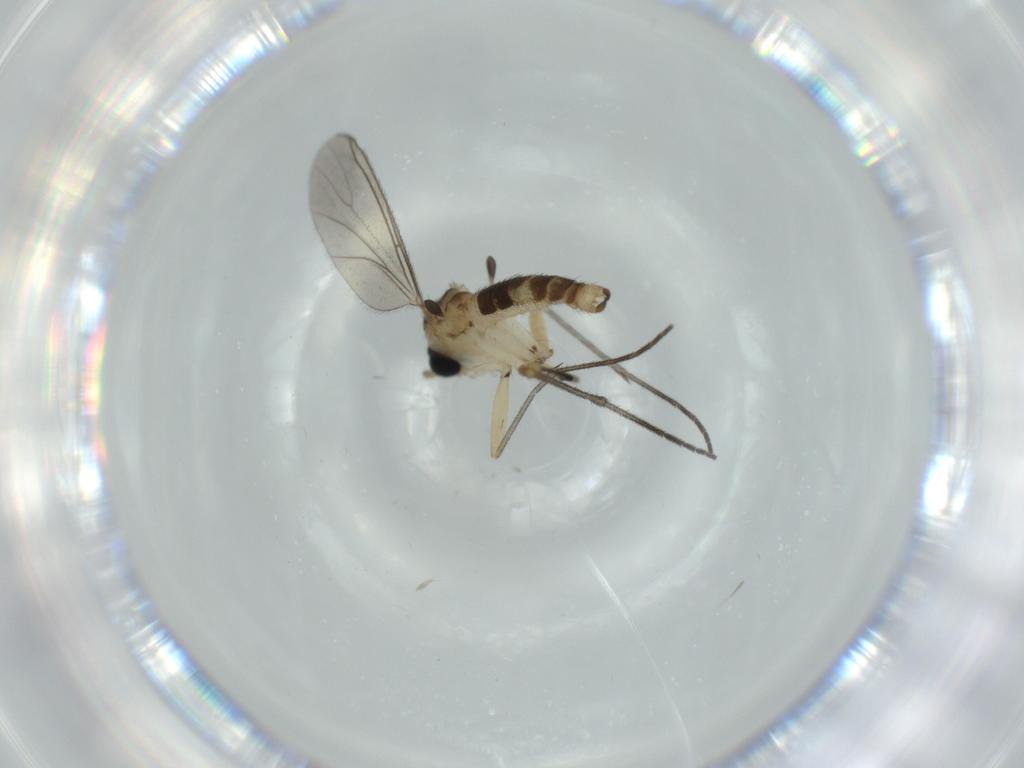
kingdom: Animalia
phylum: Arthropoda
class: Insecta
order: Diptera
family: Sciaridae
